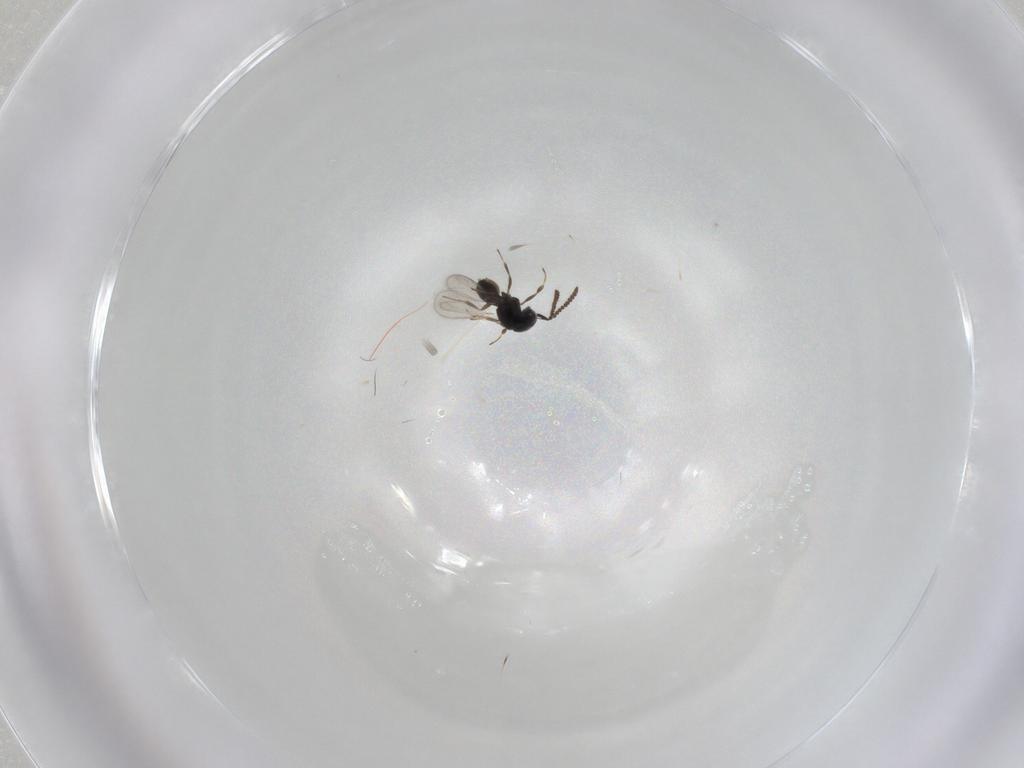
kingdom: Animalia
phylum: Arthropoda
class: Insecta
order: Hymenoptera
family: Scelionidae
